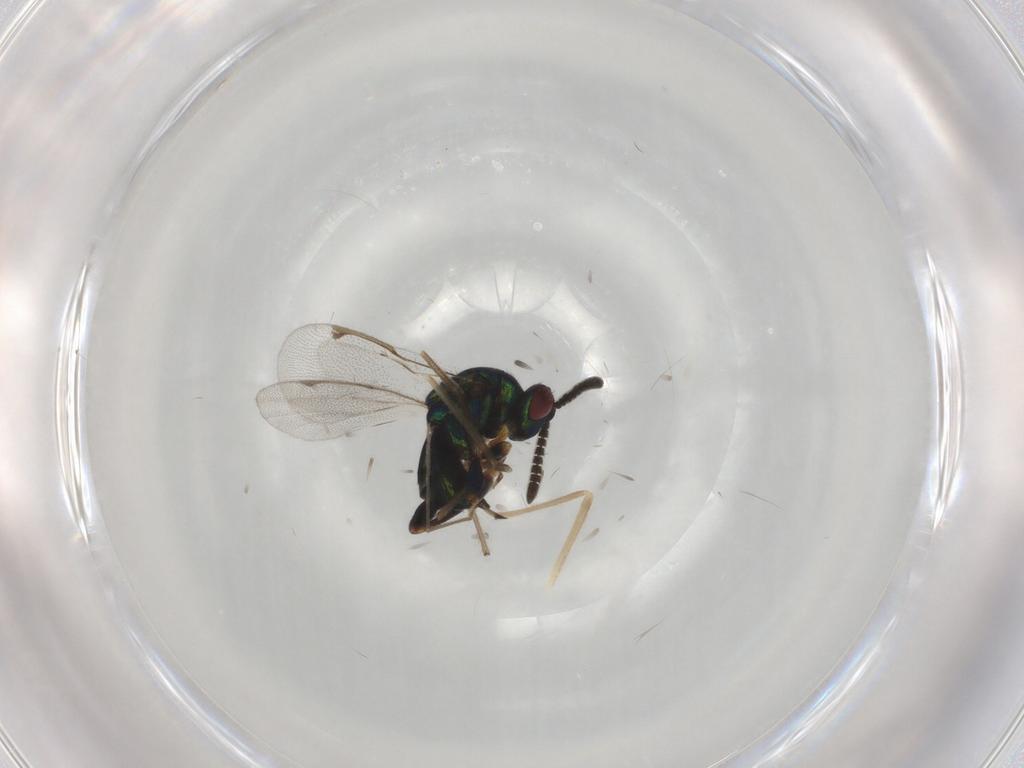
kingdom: Animalia
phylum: Arthropoda
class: Insecta
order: Hymenoptera
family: Torymidae
